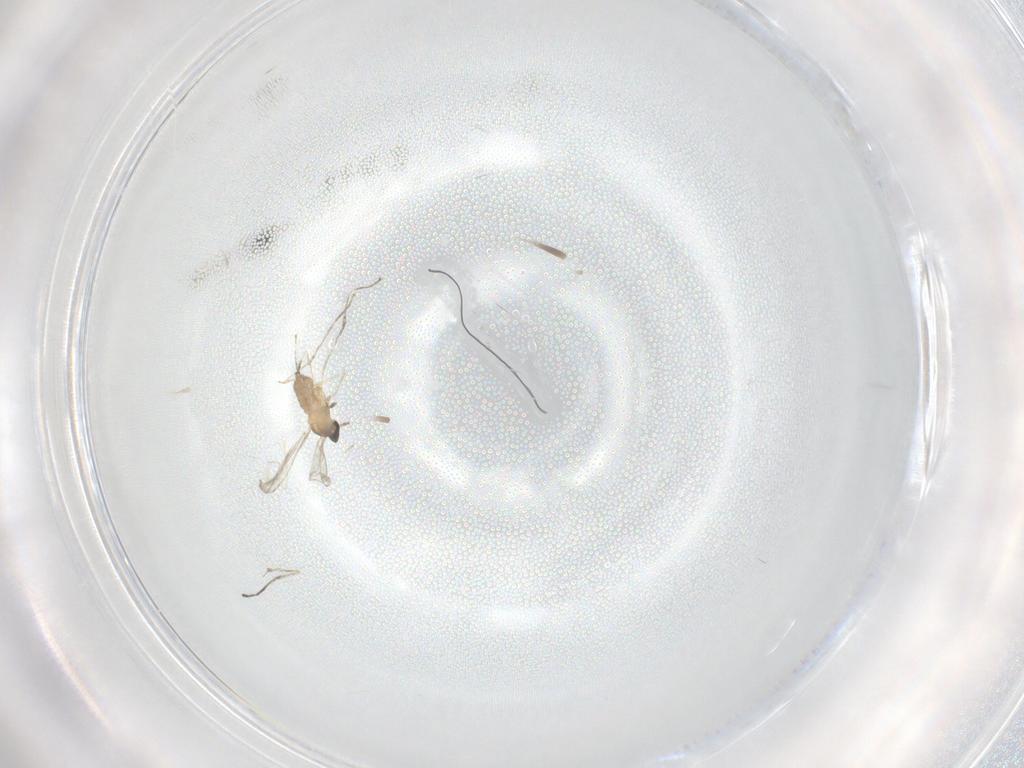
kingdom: Animalia
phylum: Arthropoda
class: Insecta
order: Diptera
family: Cecidomyiidae
